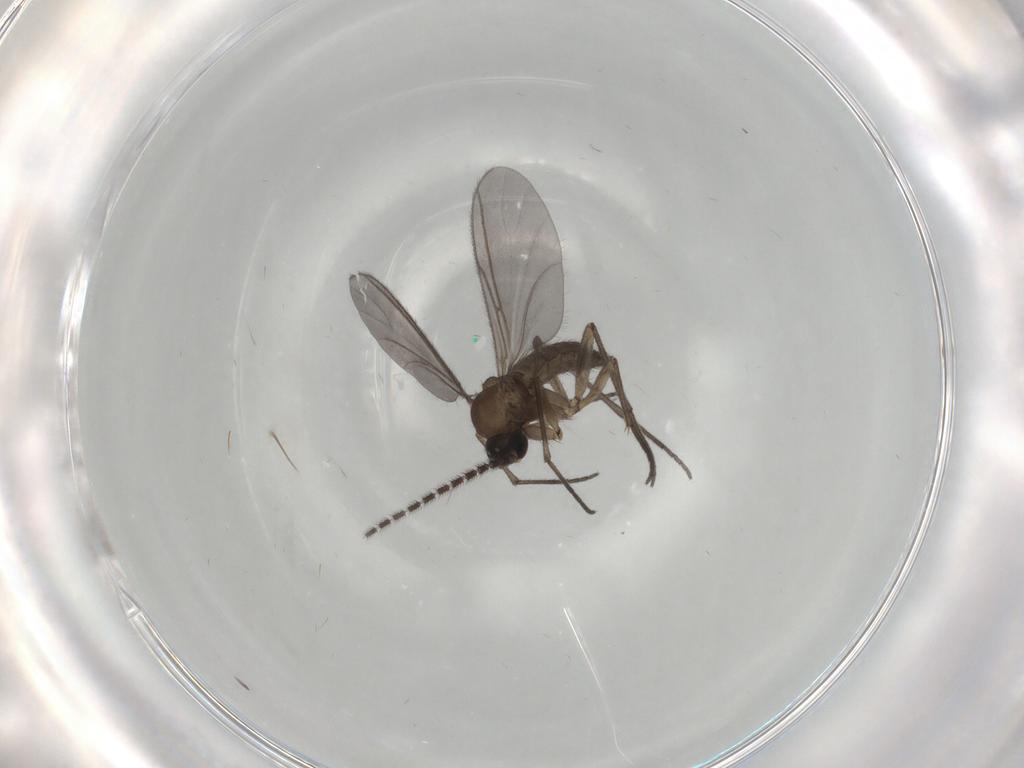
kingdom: Animalia
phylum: Arthropoda
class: Insecta
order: Diptera
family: Sciaridae
